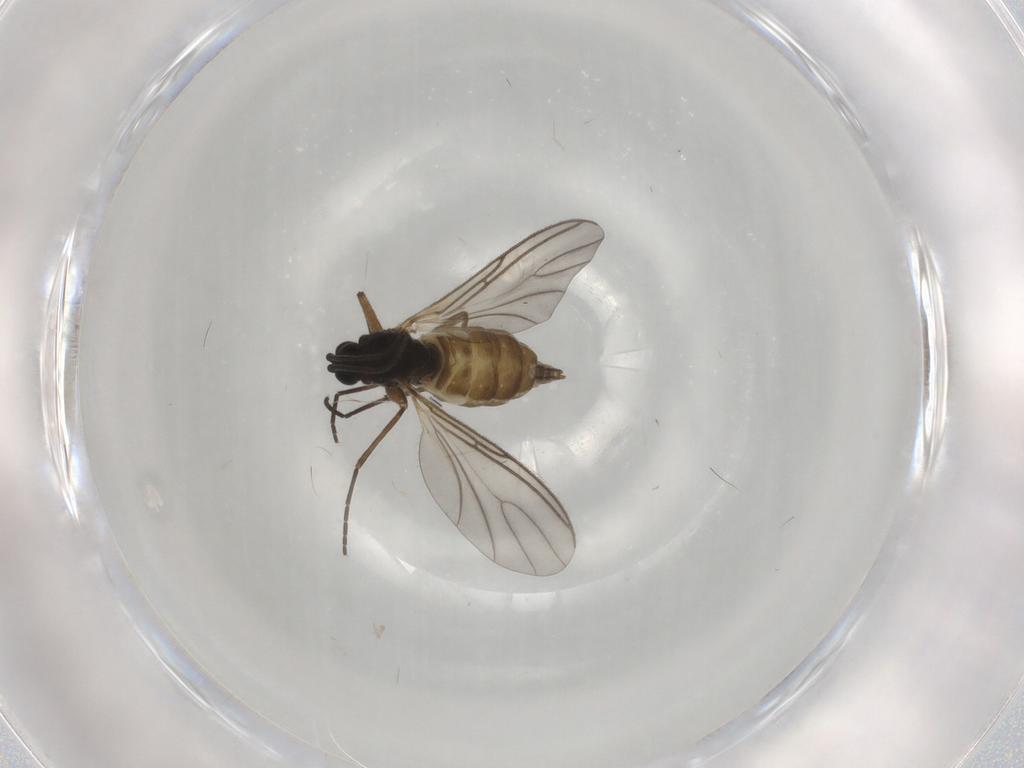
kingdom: Animalia
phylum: Arthropoda
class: Insecta
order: Diptera
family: Sciaridae
